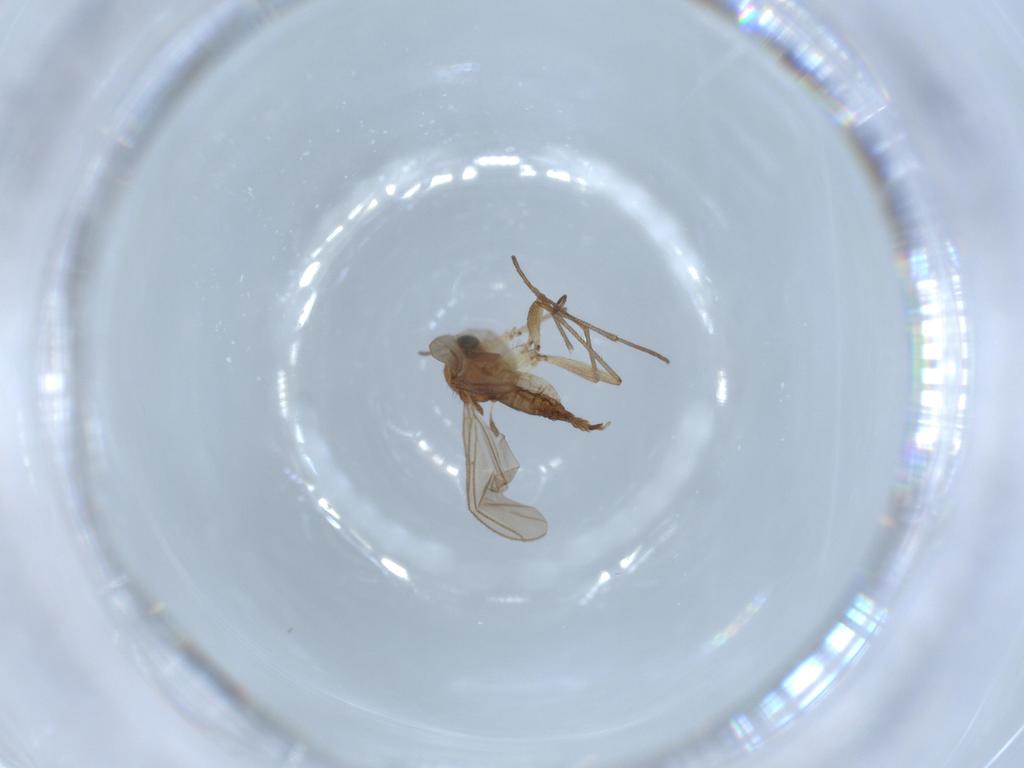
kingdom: Animalia
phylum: Arthropoda
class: Insecta
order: Diptera
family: Sciaridae
